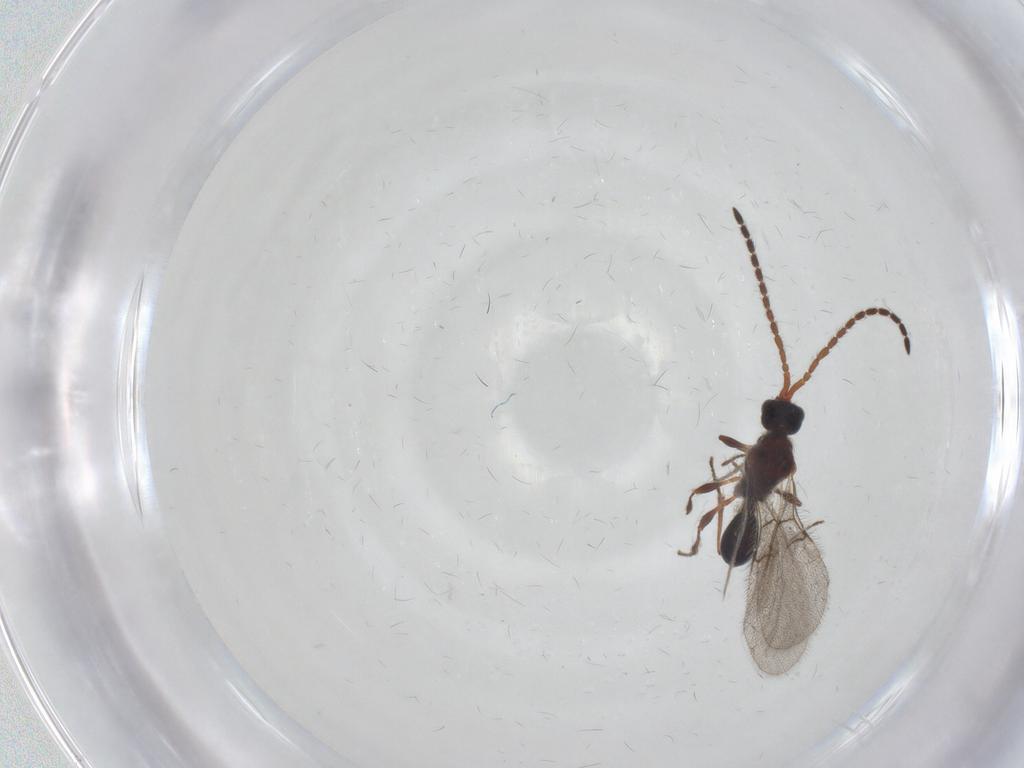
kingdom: Animalia
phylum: Arthropoda
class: Insecta
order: Hymenoptera
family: Diapriidae
